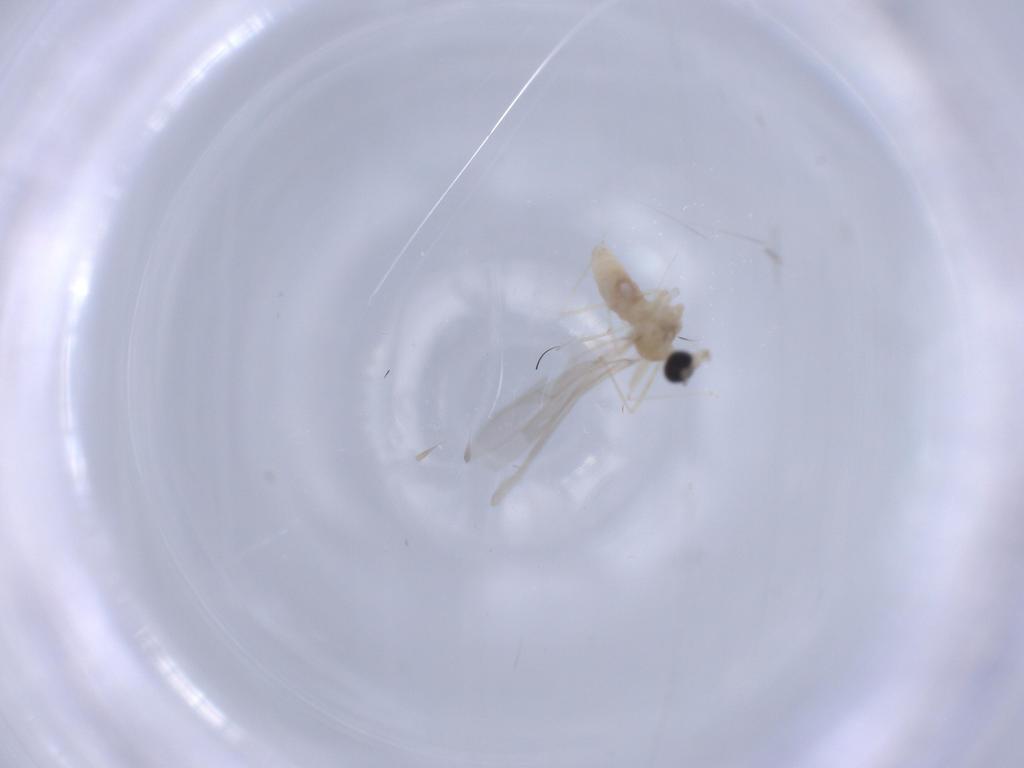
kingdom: Animalia
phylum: Arthropoda
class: Insecta
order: Diptera
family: Cecidomyiidae
